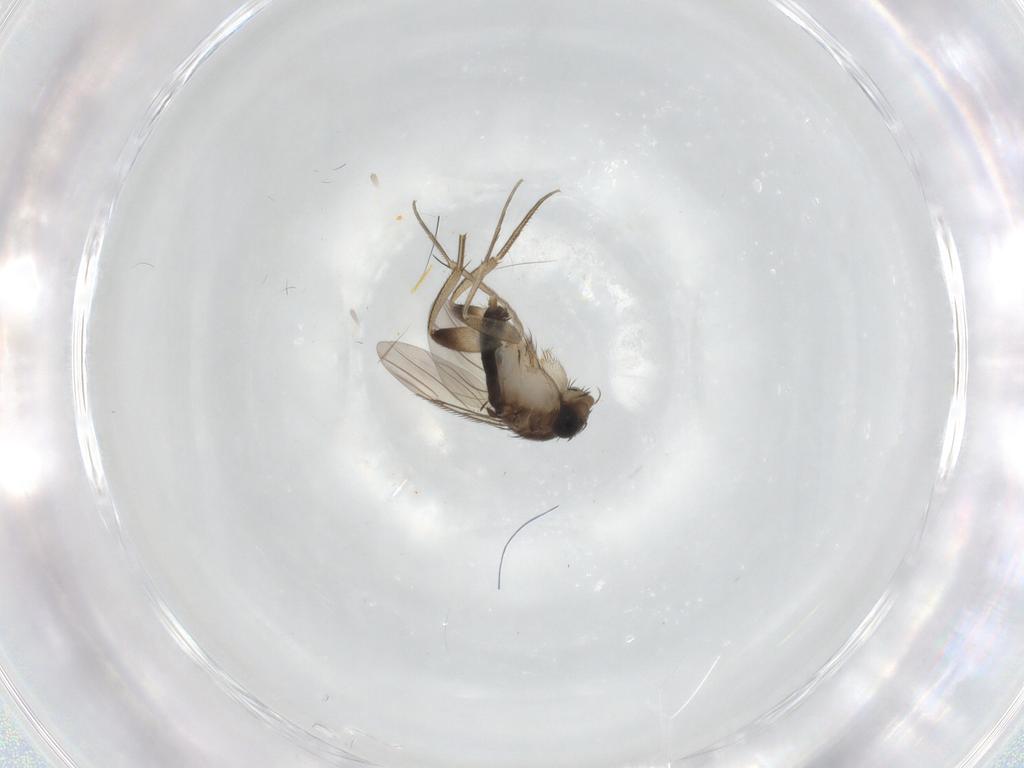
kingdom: Animalia
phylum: Arthropoda
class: Insecta
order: Diptera
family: Phoridae
